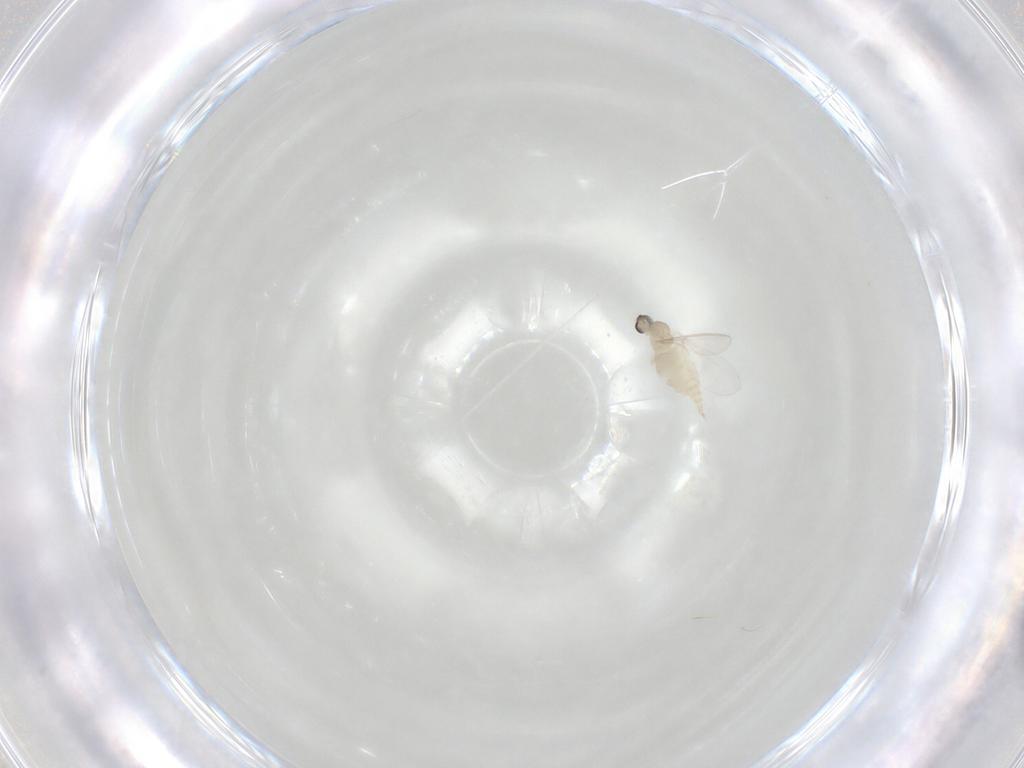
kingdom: Animalia
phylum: Arthropoda
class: Insecta
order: Diptera
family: Cecidomyiidae
